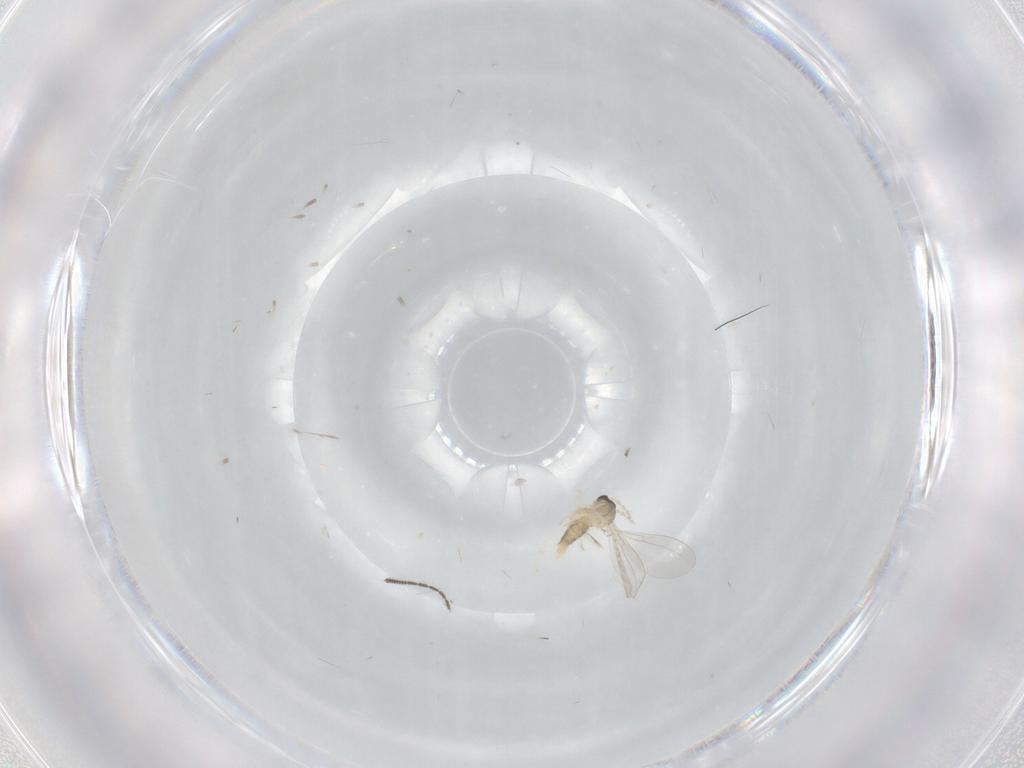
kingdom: Animalia
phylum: Arthropoda
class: Insecta
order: Diptera
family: Cecidomyiidae
